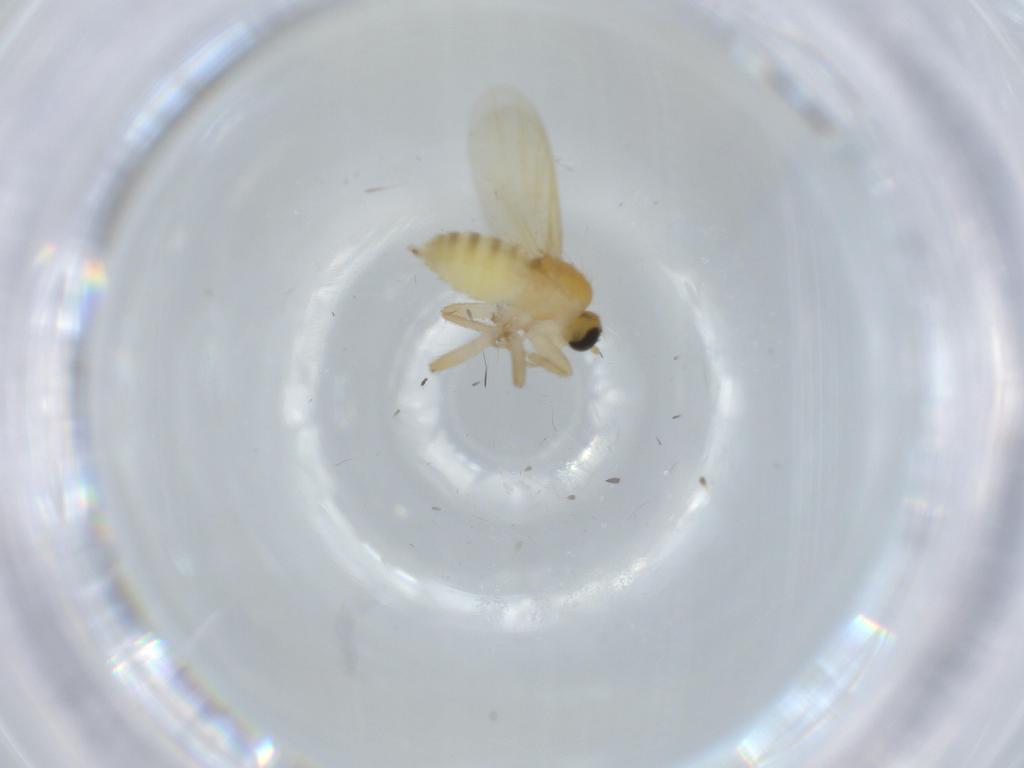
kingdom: Animalia
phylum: Arthropoda
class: Insecta
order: Diptera
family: Hybotidae
